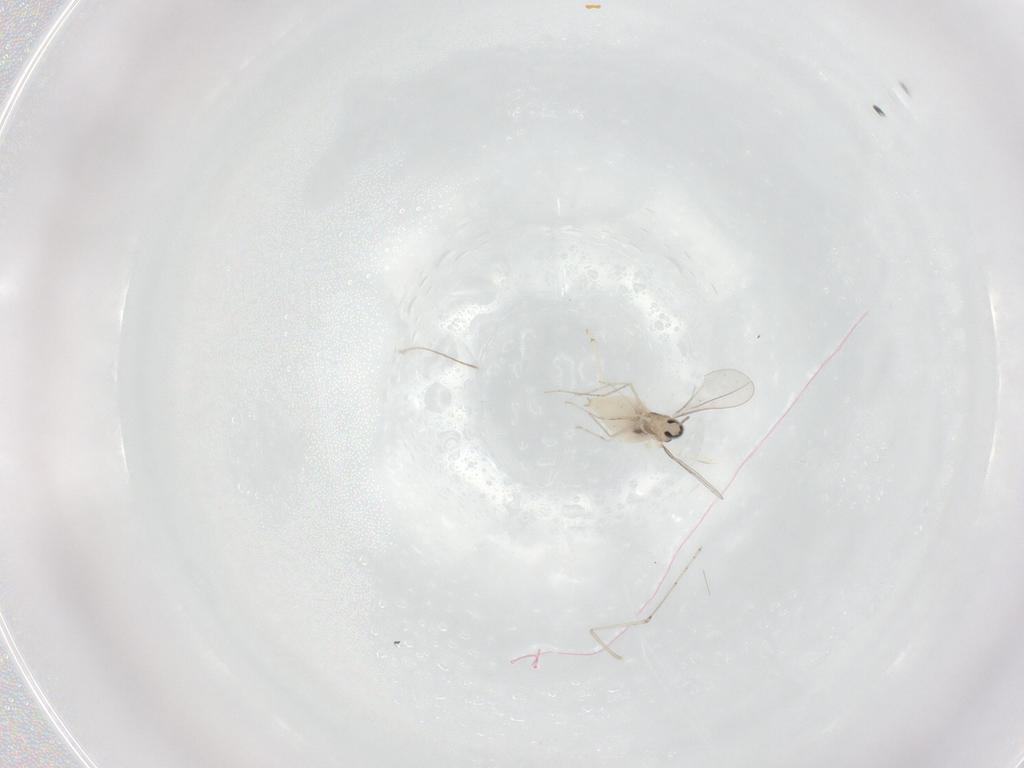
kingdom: Animalia
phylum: Arthropoda
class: Insecta
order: Diptera
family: Cecidomyiidae
